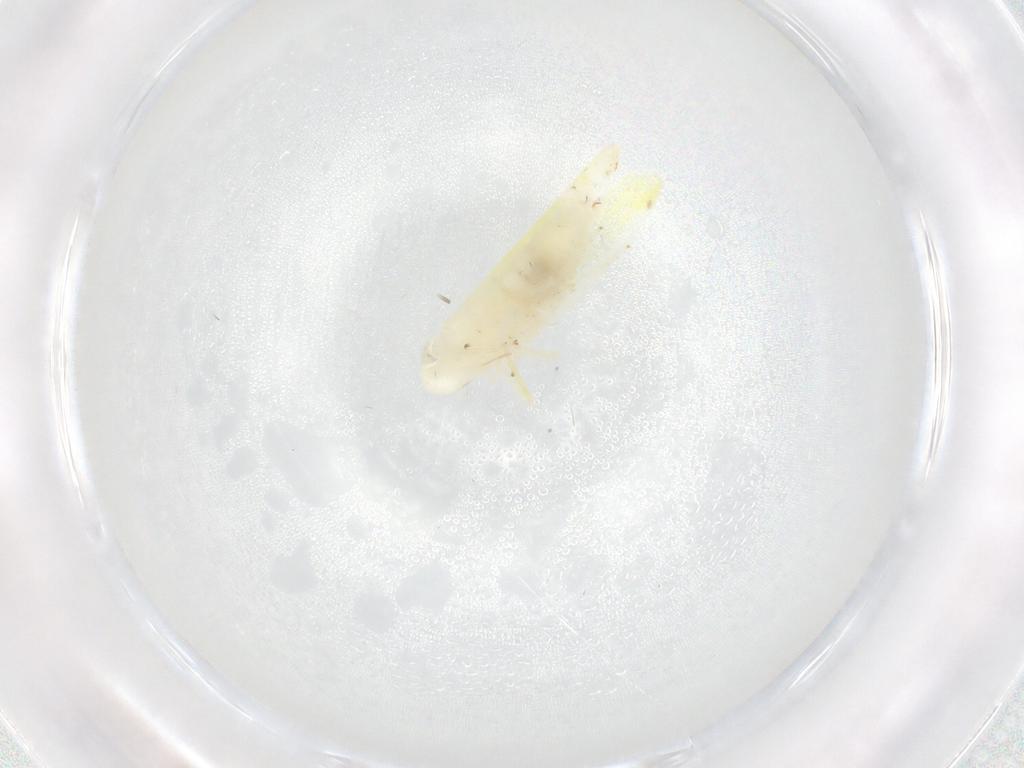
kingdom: Animalia
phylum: Arthropoda
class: Insecta
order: Hemiptera
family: Cicadellidae
